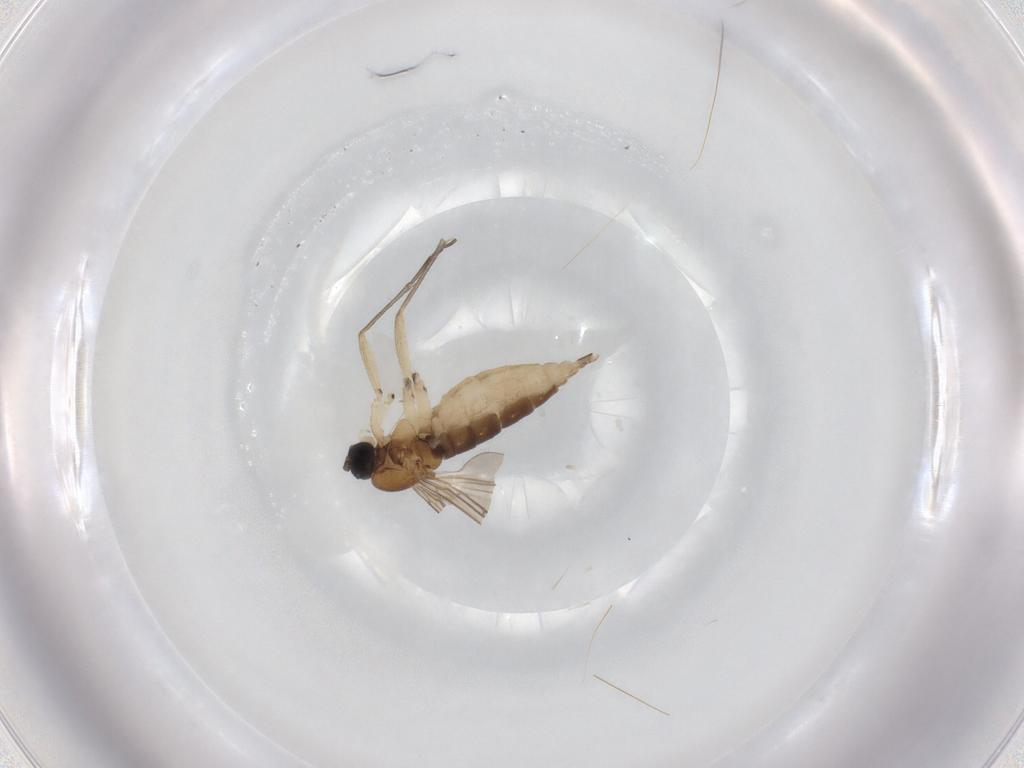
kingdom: Animalia
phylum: Arthropoda
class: Insecta
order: Diptera
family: Sciaridae
